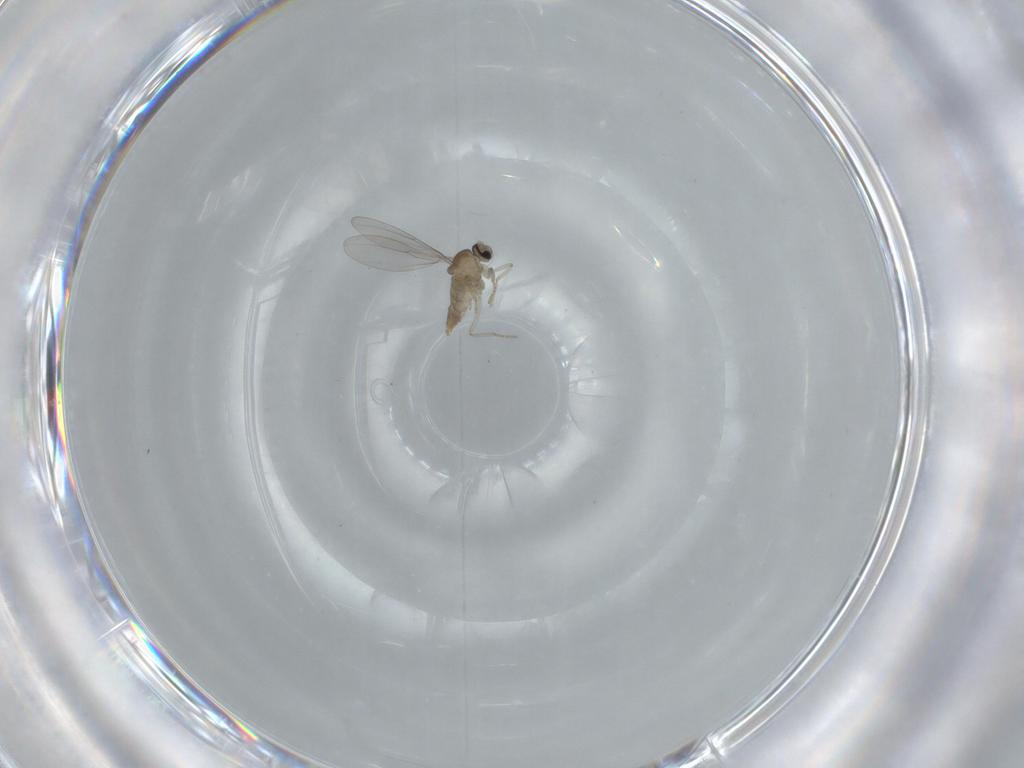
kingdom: Animalia
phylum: Arthropoda
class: Insecta
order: Diptera
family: Cecidomyiidae
